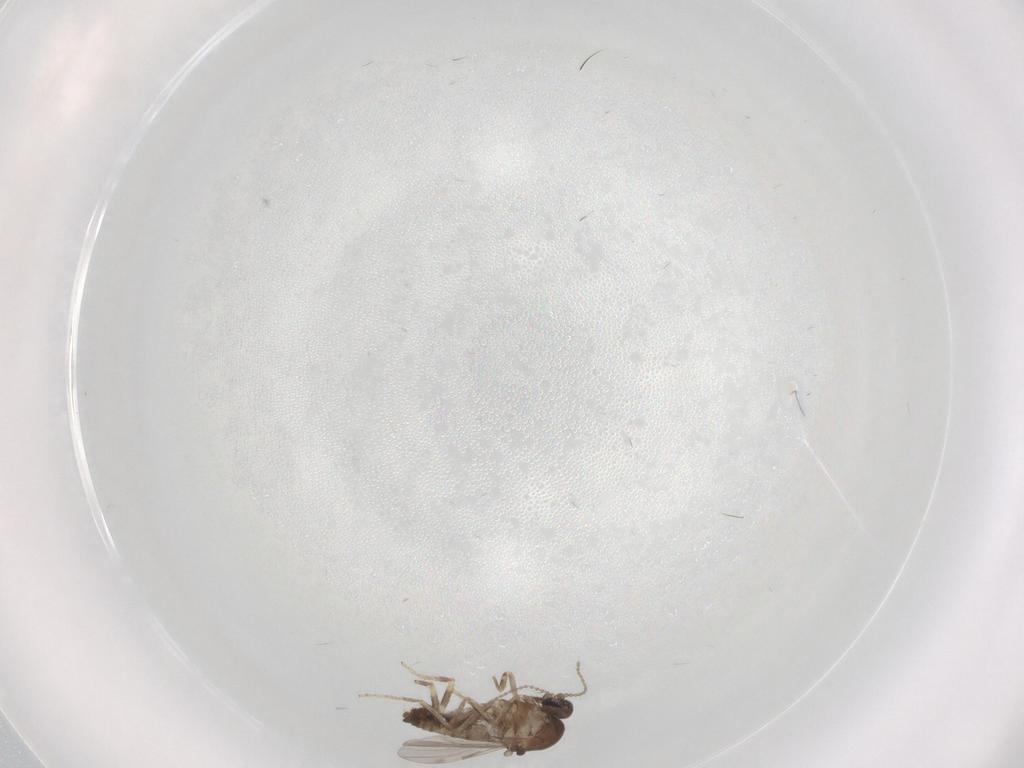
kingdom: Animalia
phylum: Arthropoda
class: Insecta
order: Diptera
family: Ceratopogonidae
